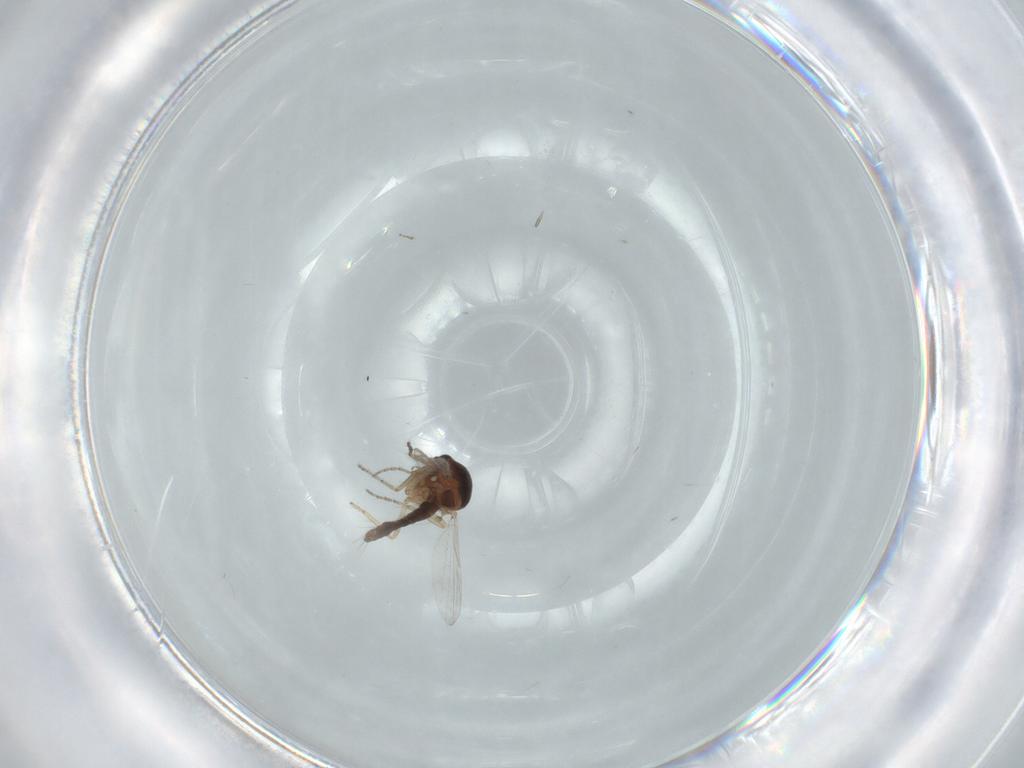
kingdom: Animalia
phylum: Arthropoda
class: Insecta
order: Diptera
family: Ceratopogonidae
